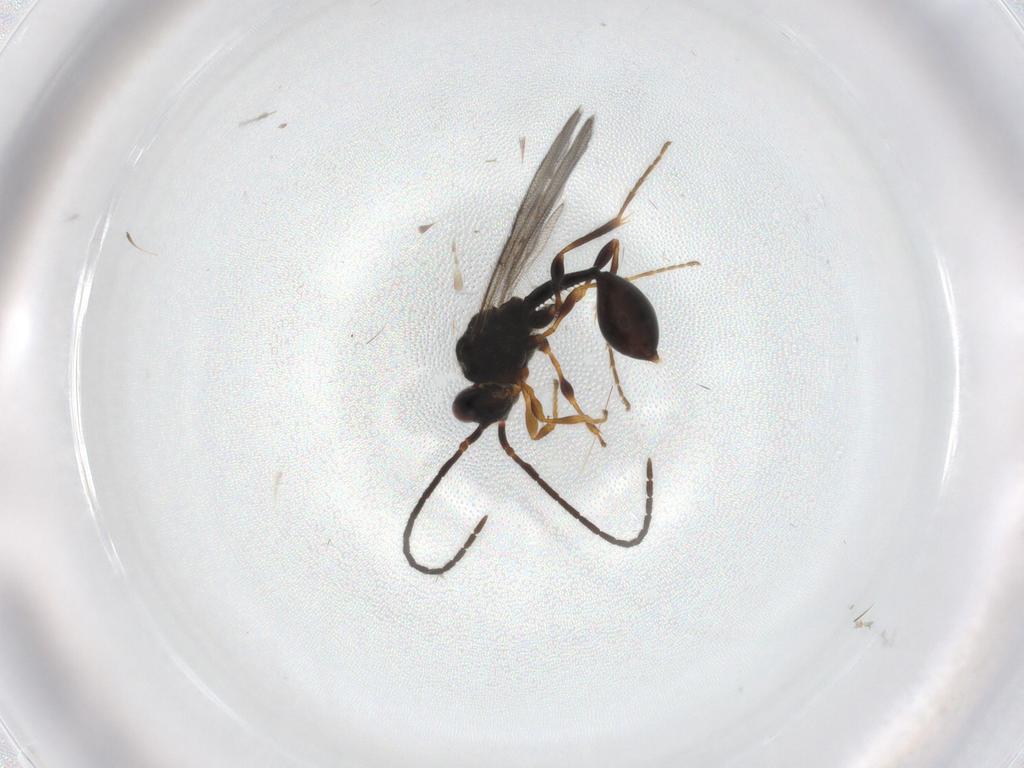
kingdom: Animalia
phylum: Arthropoda
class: Insecta
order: Hymenoptera
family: Diapriidae
